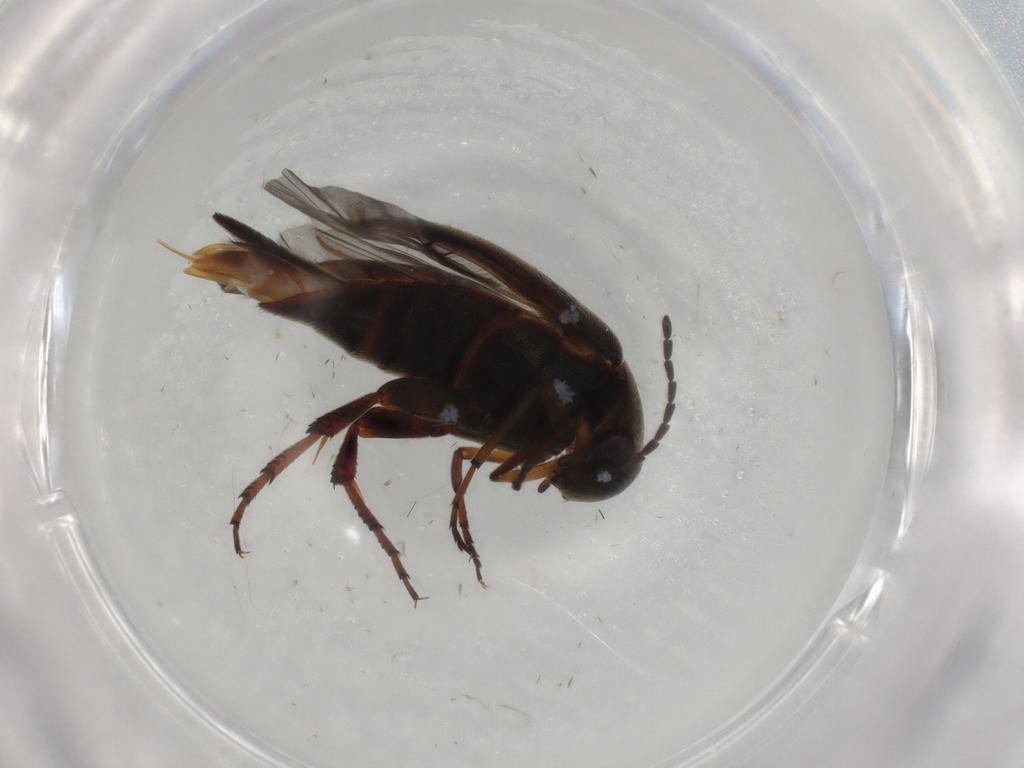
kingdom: Animalia
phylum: Arthropoda
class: Insecta
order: Coleoptera
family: Mordellidae
